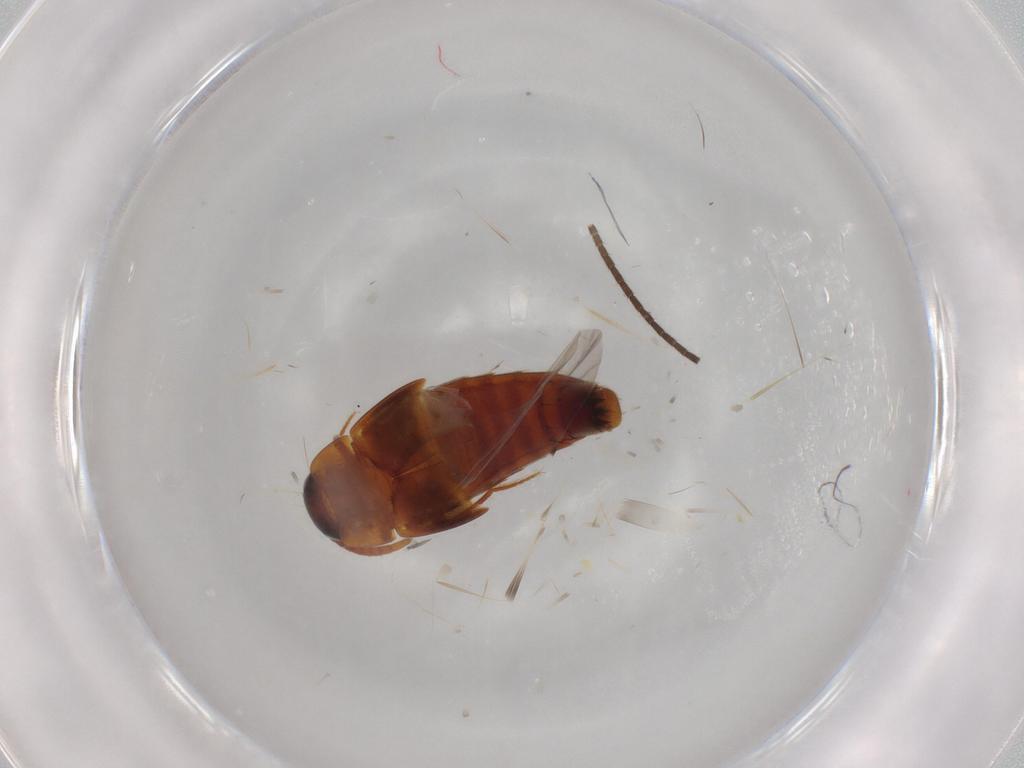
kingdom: Animalia
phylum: Arthropoda
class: Insecta
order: Coleoptera
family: Staphylinidae
